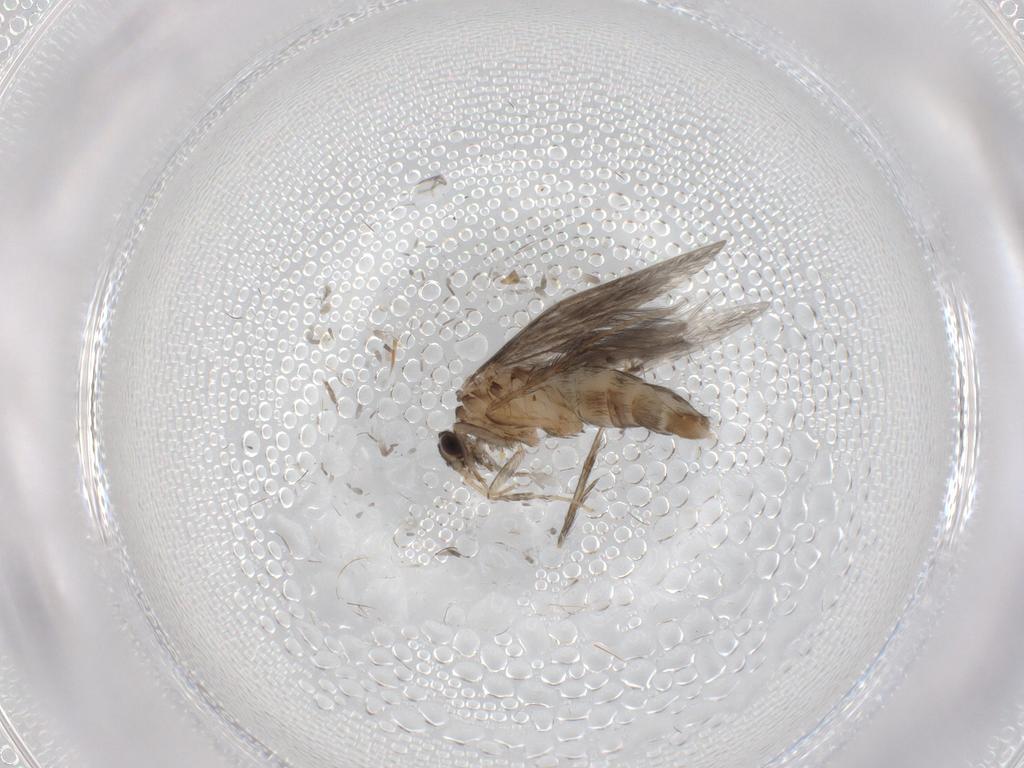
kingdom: Animalia
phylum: Arthropoda
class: Insecta
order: Trichoptera
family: Hydroptilidae
